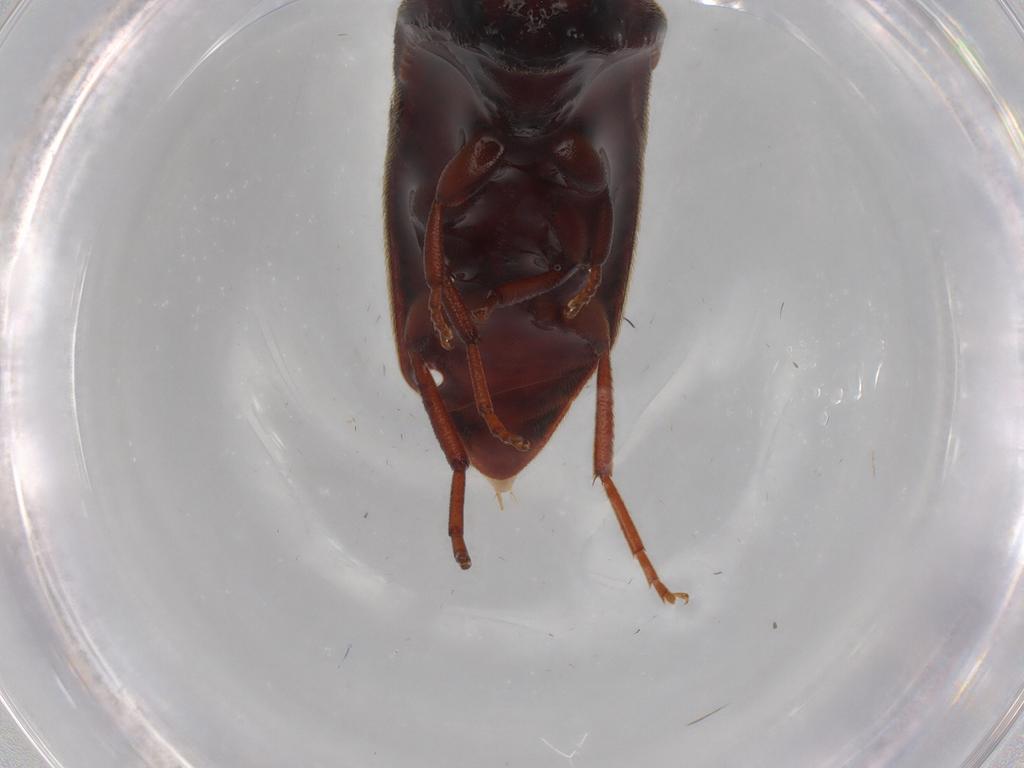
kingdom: Animalia
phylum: Arthropoda
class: Insecta
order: Coleoptera
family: Eucnemidae
